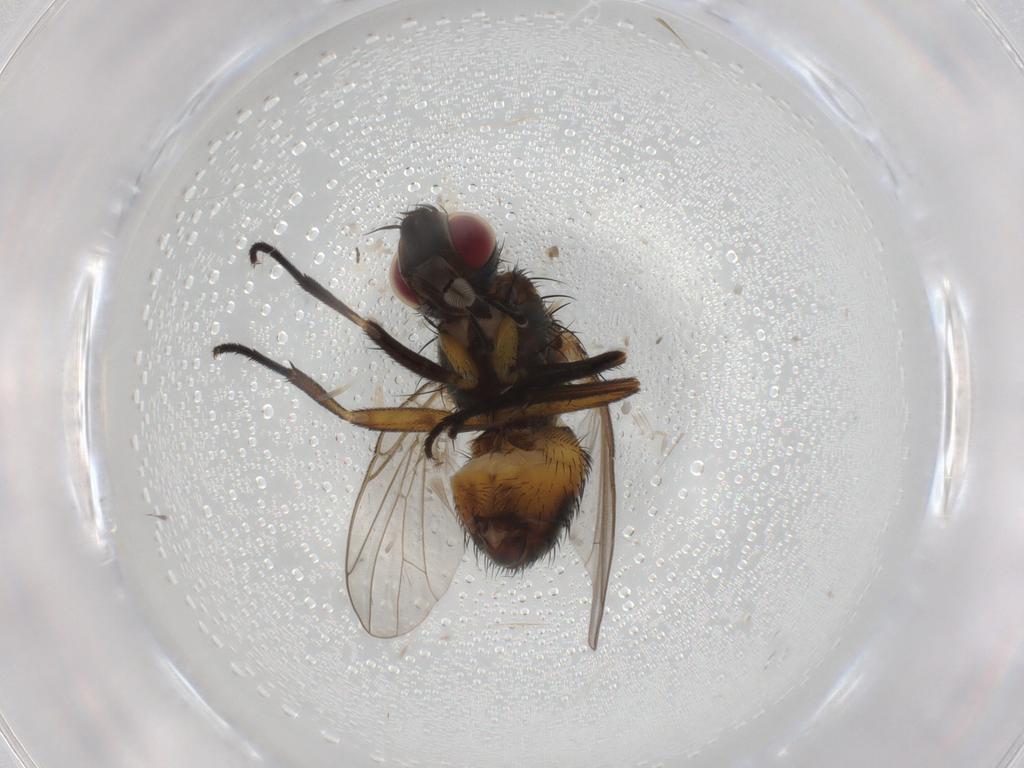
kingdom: Animalia
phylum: Arthropoda
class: Insecta
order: Diptera
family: Muscidae
